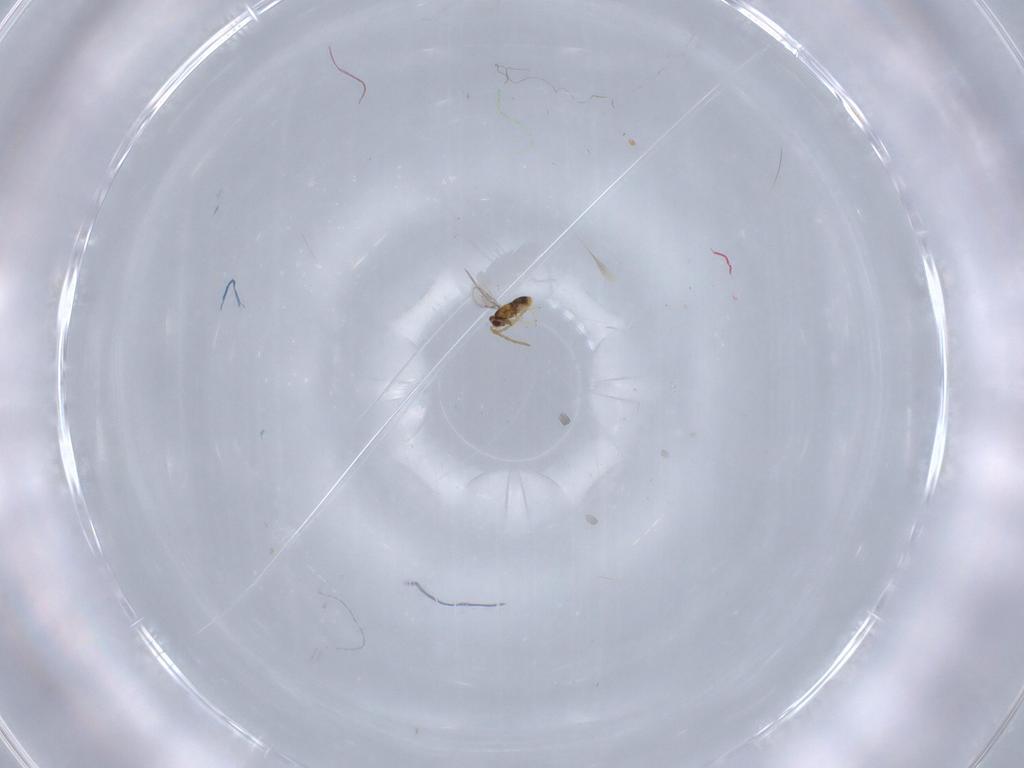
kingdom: Animalia
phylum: Arthropoda
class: Insecta
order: Hymenoptera
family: Aphelinidae
